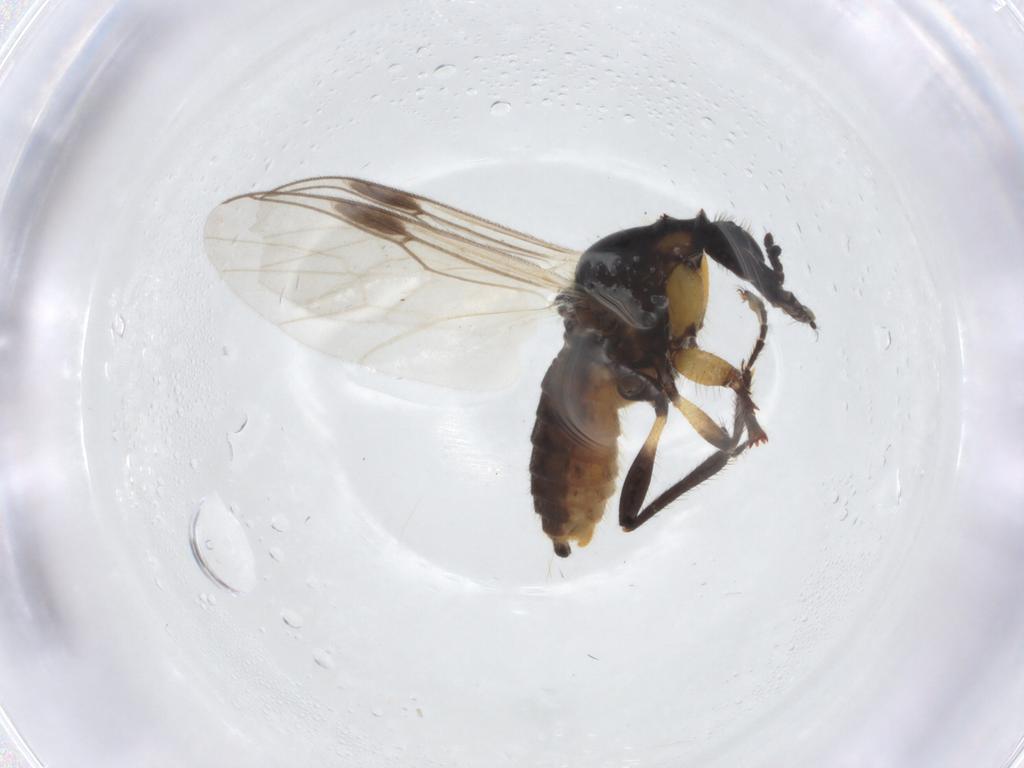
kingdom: Animalia
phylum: Arthropoda
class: Insecta
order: Diptera
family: Bibionidae
